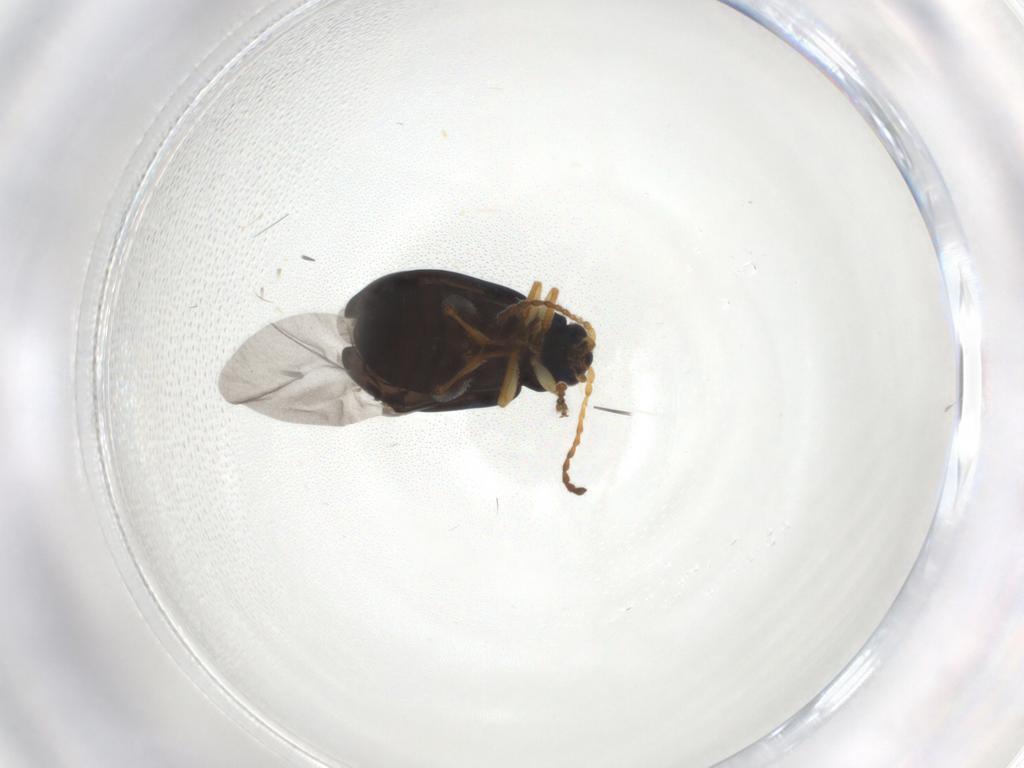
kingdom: Animalia
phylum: Arthropoda
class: Insecta
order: Coleoptera
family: Chrysomelidae
